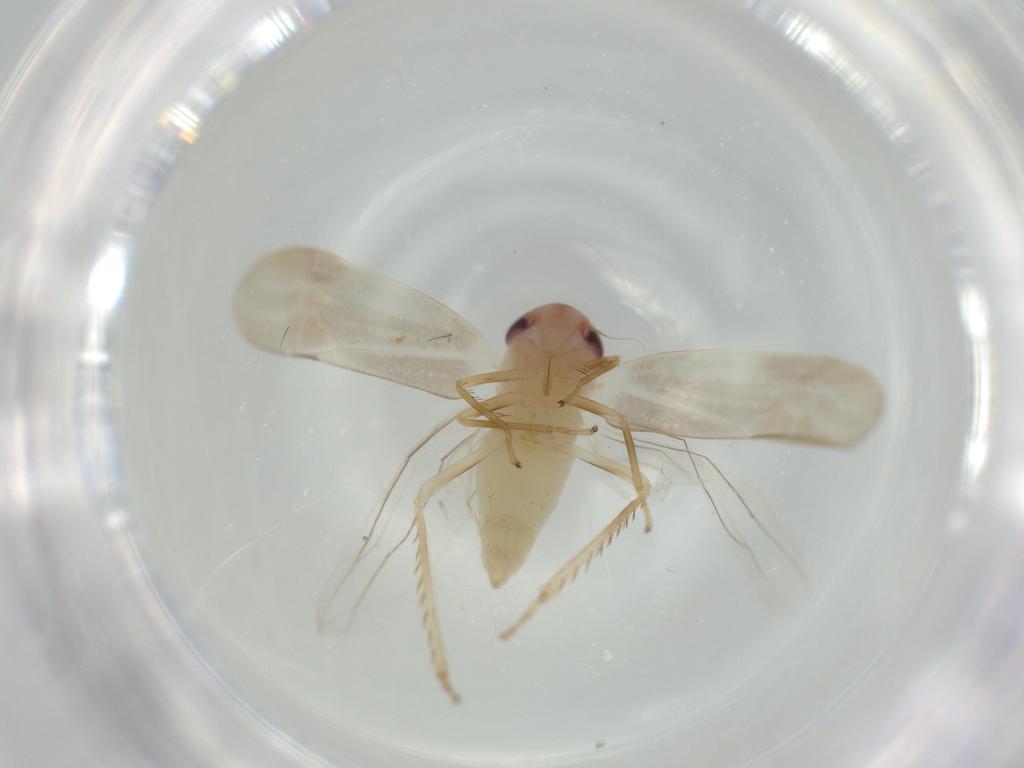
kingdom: Animalia
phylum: Arthropoda
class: Insecta
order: Hemiptera
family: Cicadellidae
